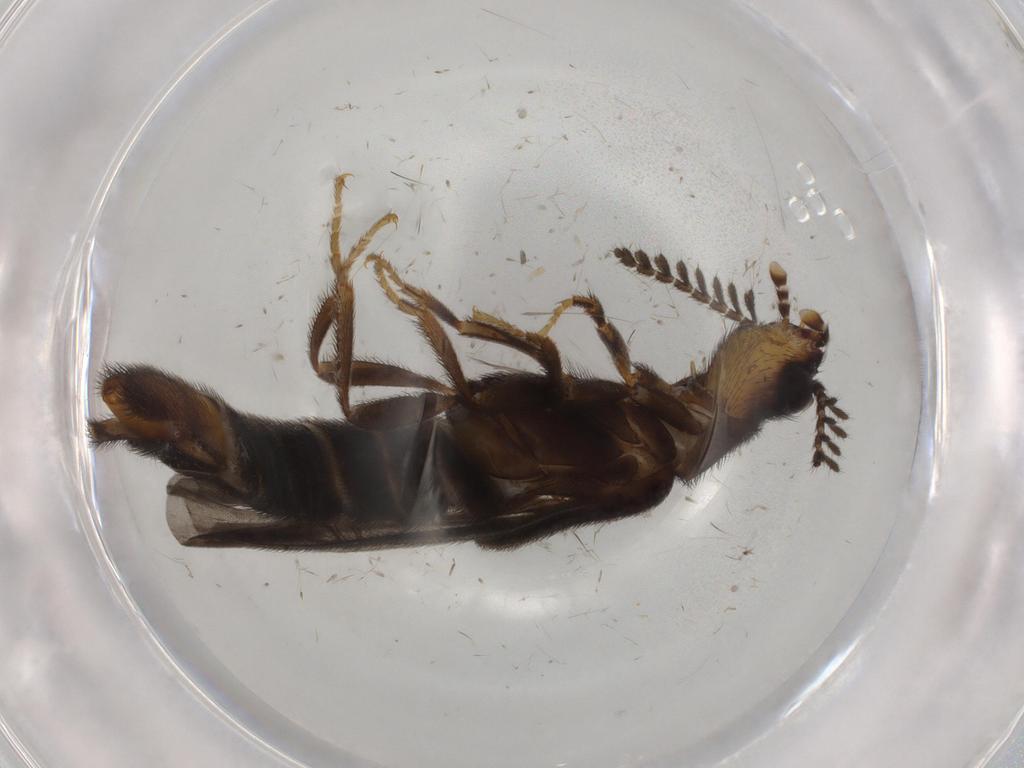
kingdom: Animalia
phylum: Arthropoda
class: Insecta
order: Coleoptera
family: Phengodidae
